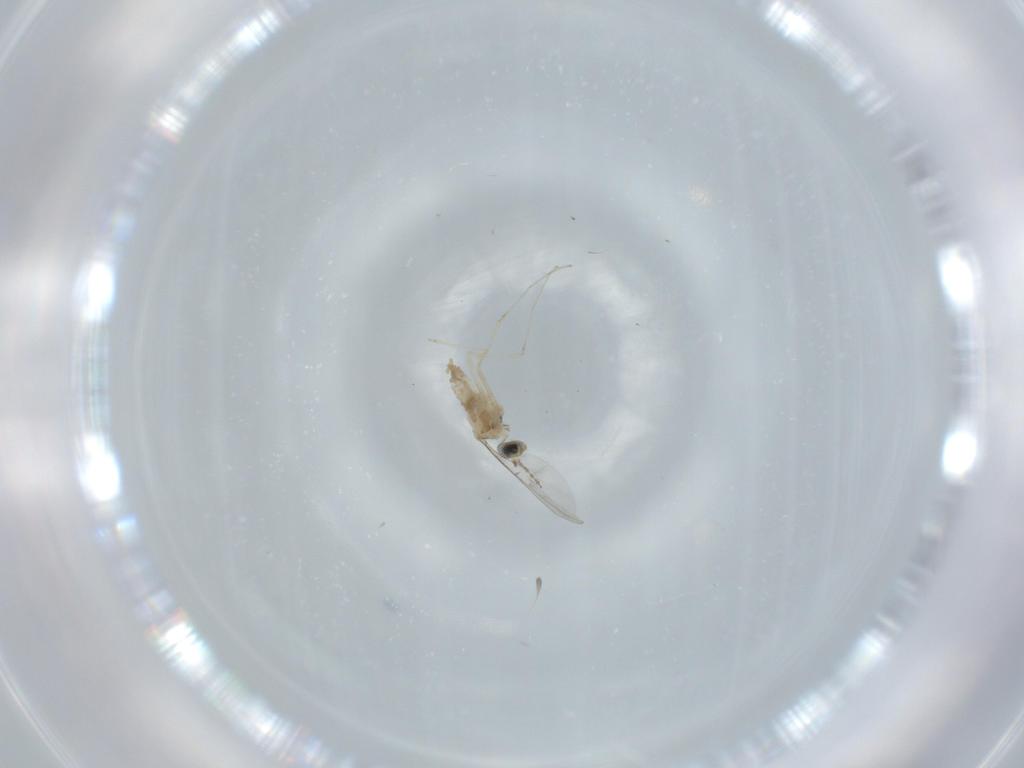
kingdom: Animalia
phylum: Arthropoda
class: Insecta
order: Diptera
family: Cecidomyiidae
